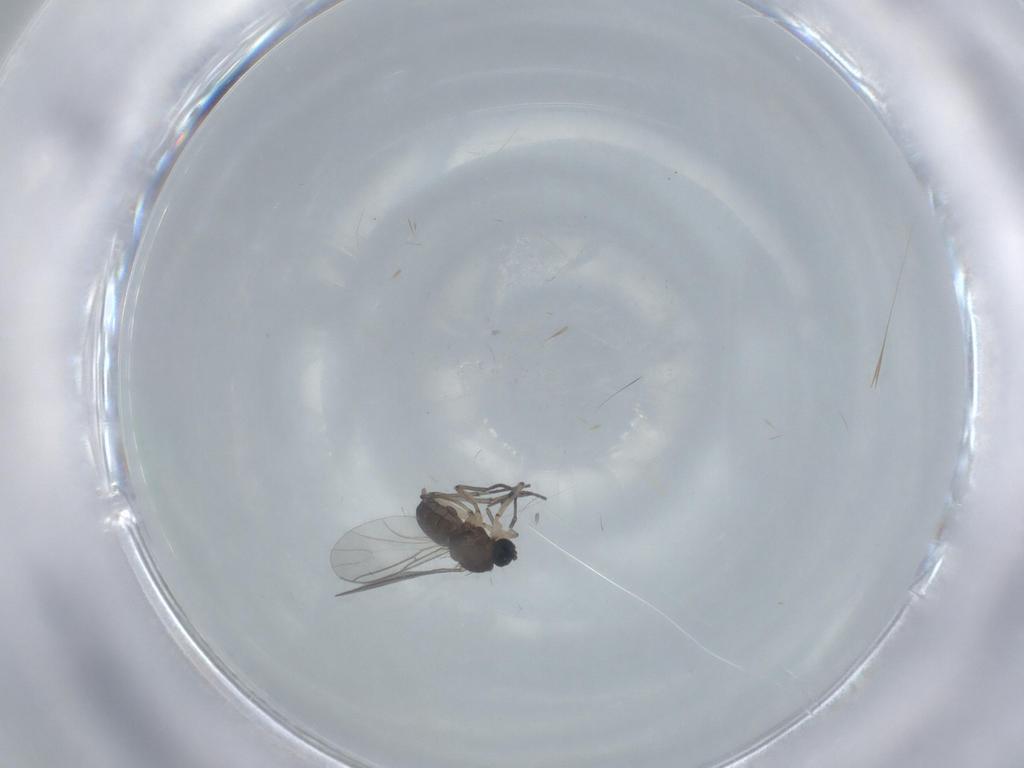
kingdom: Animalia
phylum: Arthropoda
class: Insecta
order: Diptera
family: Sciaridae
